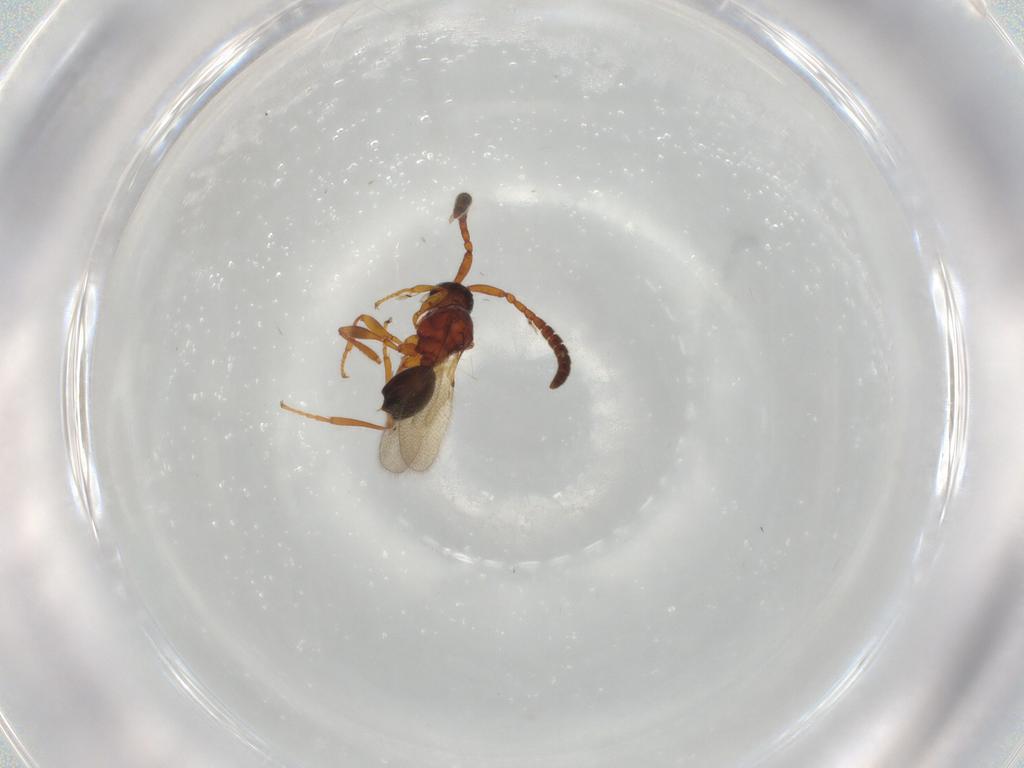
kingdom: Animalia
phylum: Arthropoda
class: Insecta
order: Hymenoptera
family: Diapriidae
